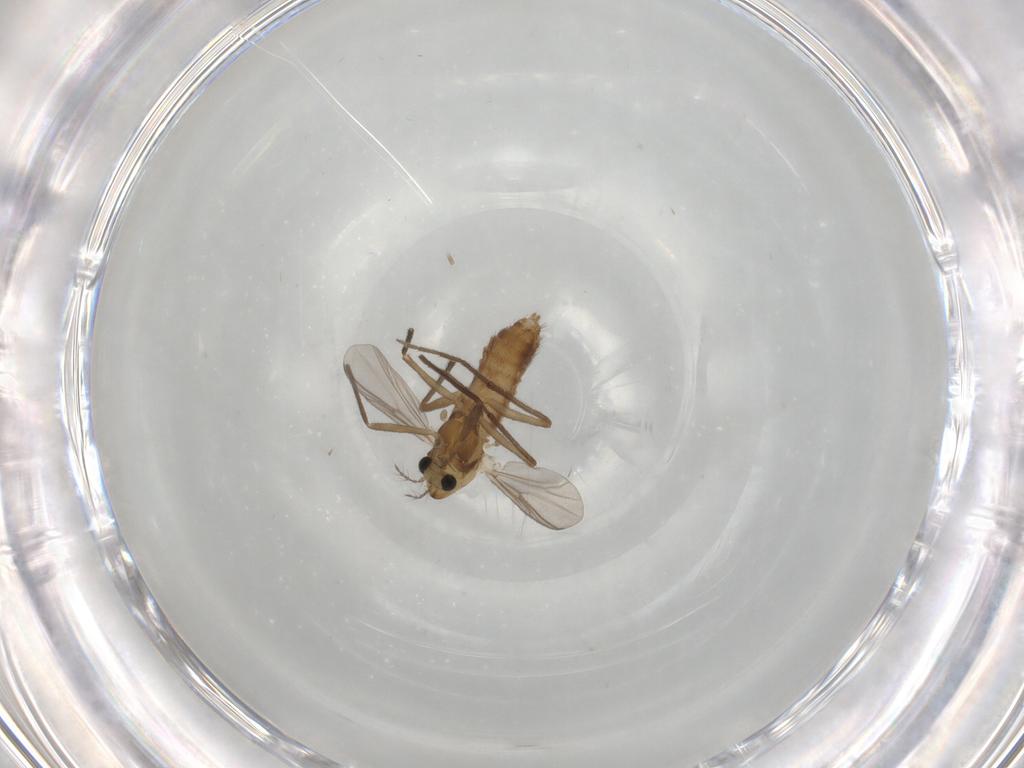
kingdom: Animalia
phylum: Arthropoda
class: Insecta
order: Diptera
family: Chironomidae
